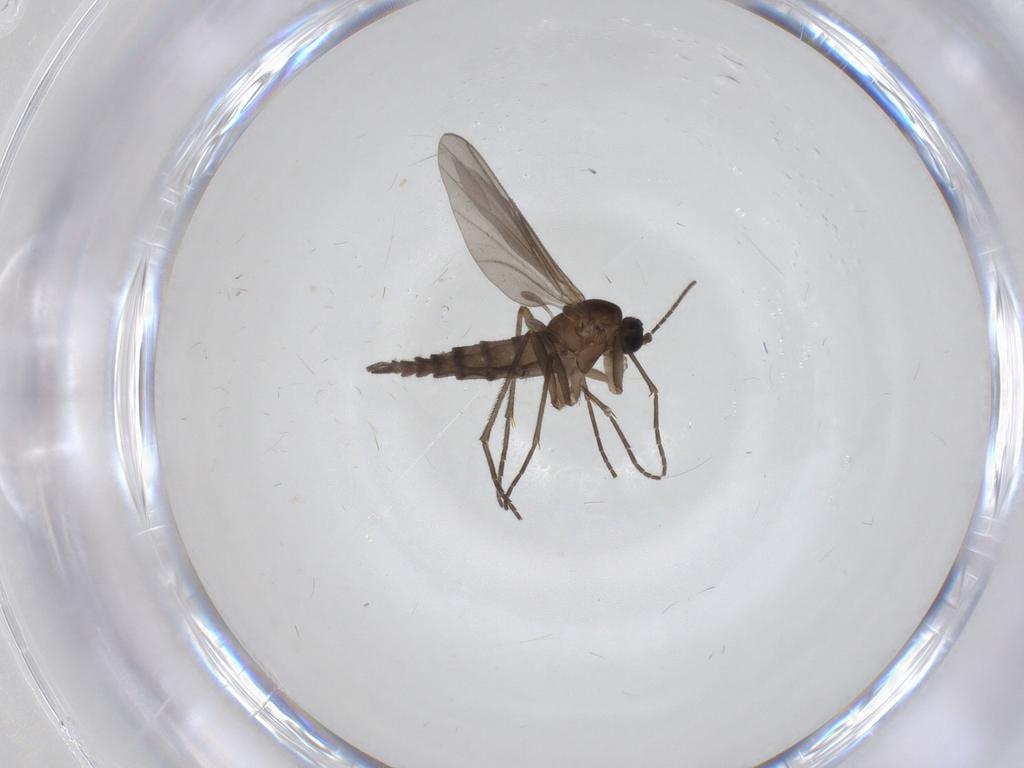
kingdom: Animalia
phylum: Arthropoda
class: Insecta
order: Diptera
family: Sciaridae
